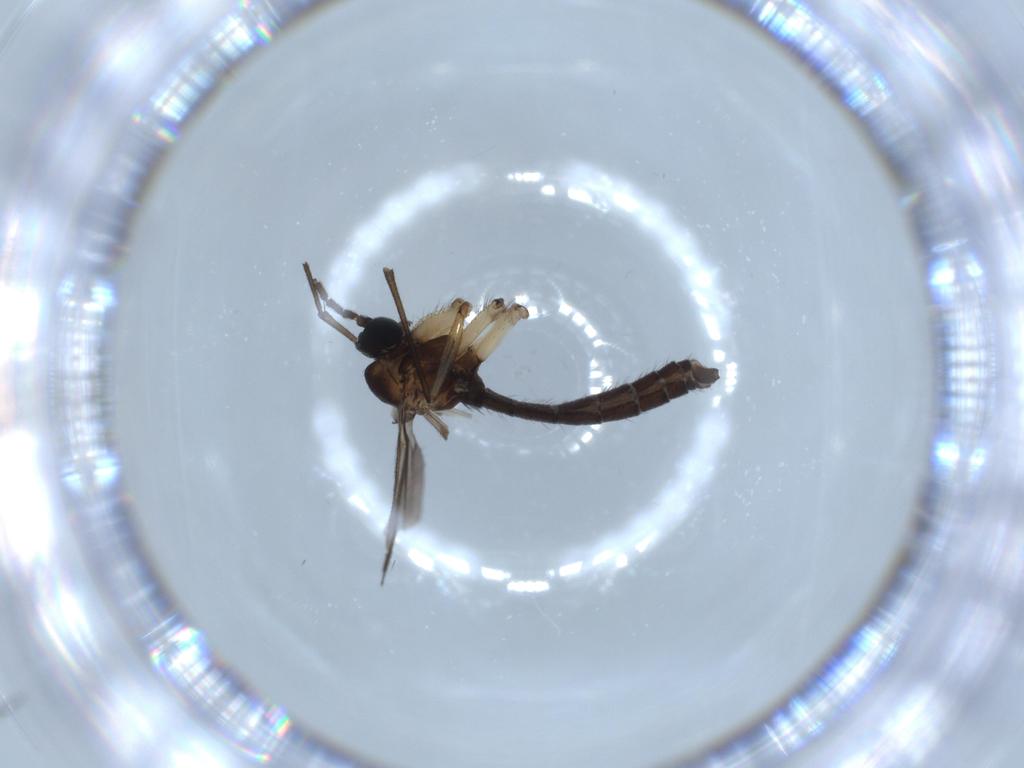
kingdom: Animalia
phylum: Arthropoda
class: Insecta
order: Diptera
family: Sciaridae
